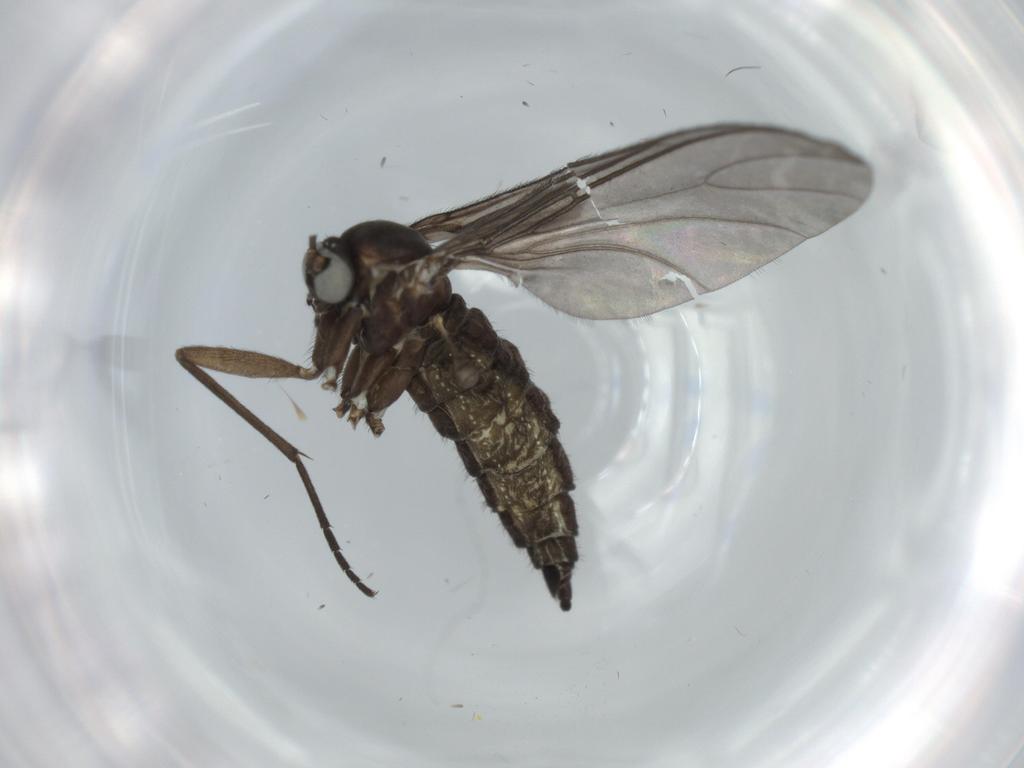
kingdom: Animalia
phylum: Arthropoda
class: Insecta
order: Diptera
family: Sciaridae
